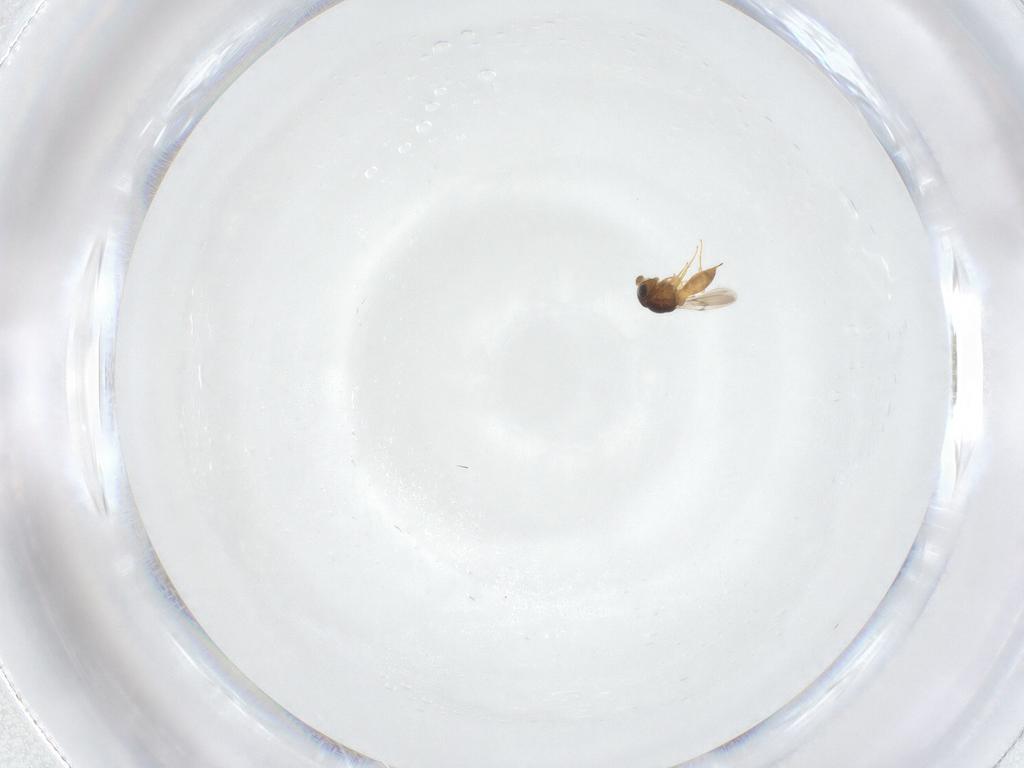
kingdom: Animalia
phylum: Arthropoda
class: Insecta
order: Hymenoptera
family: Scelionidae
